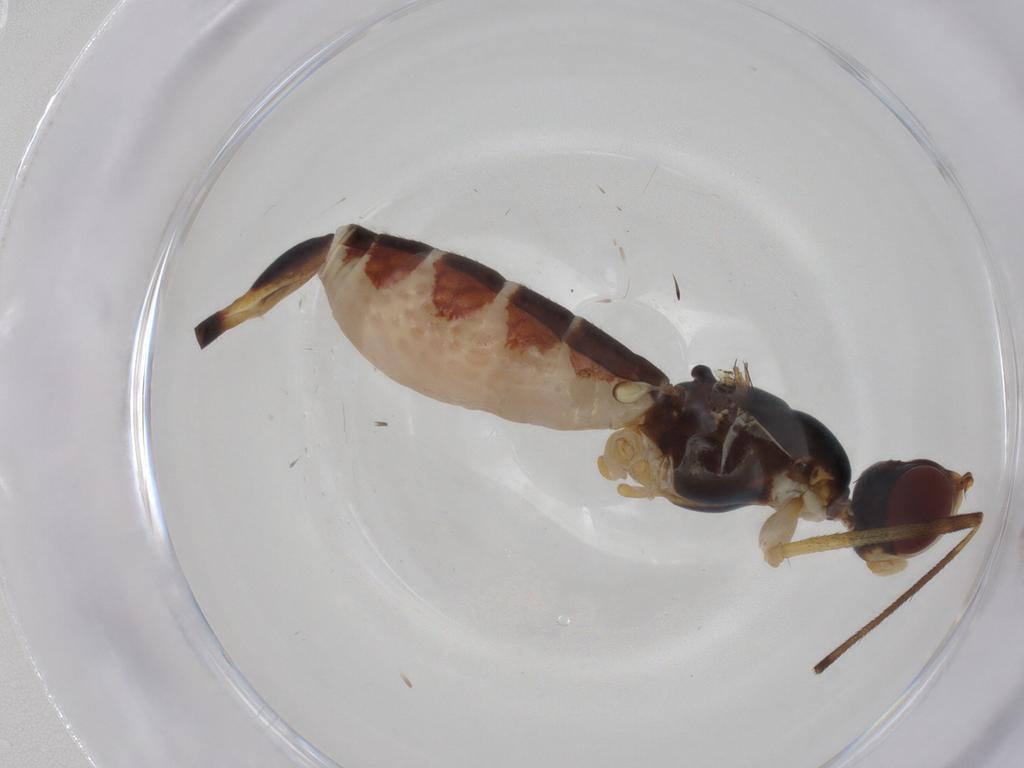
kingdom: Animalia
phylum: Arthropoda
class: Insecta
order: Diptera
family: Micropezidae
